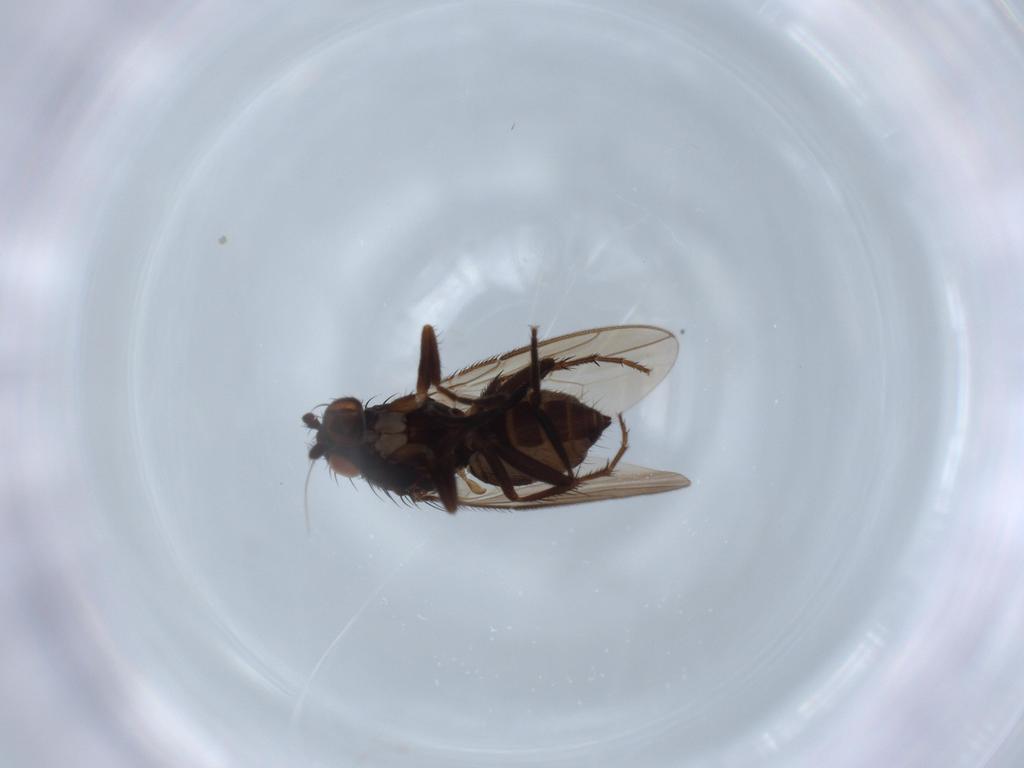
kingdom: Animalia
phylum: Arthropoda
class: Insecta
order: Diptera
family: Sphaeroceridae
